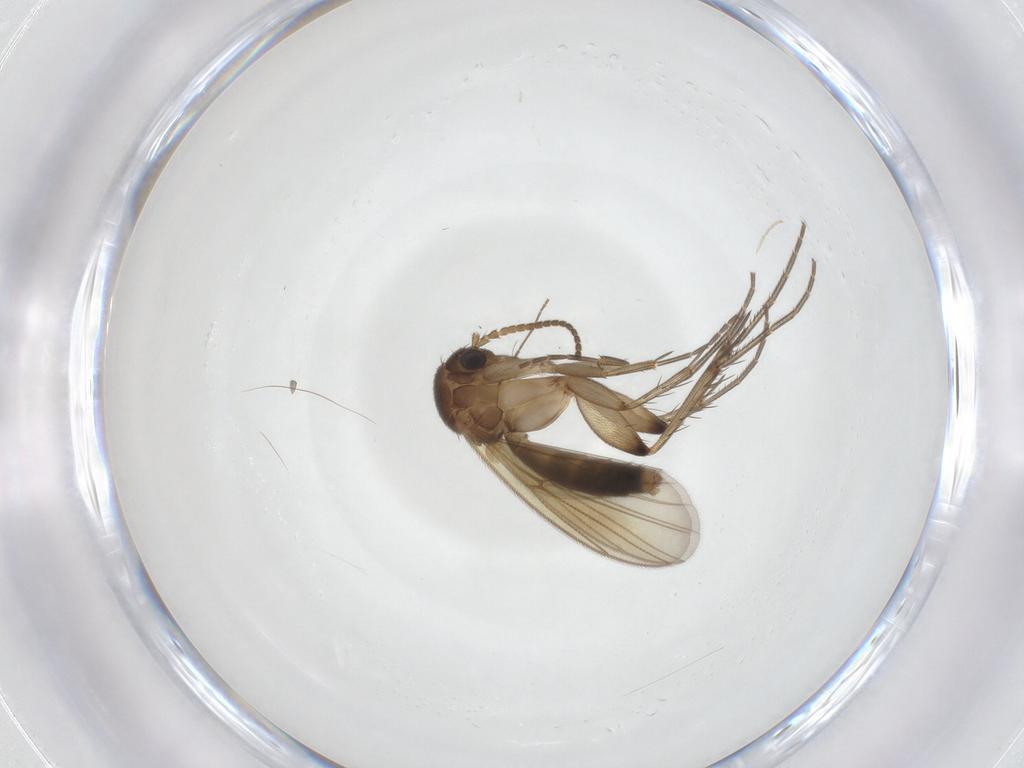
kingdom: Animalia
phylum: Arthropoda
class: Insecta
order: Diptera
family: Mycetophilidae
